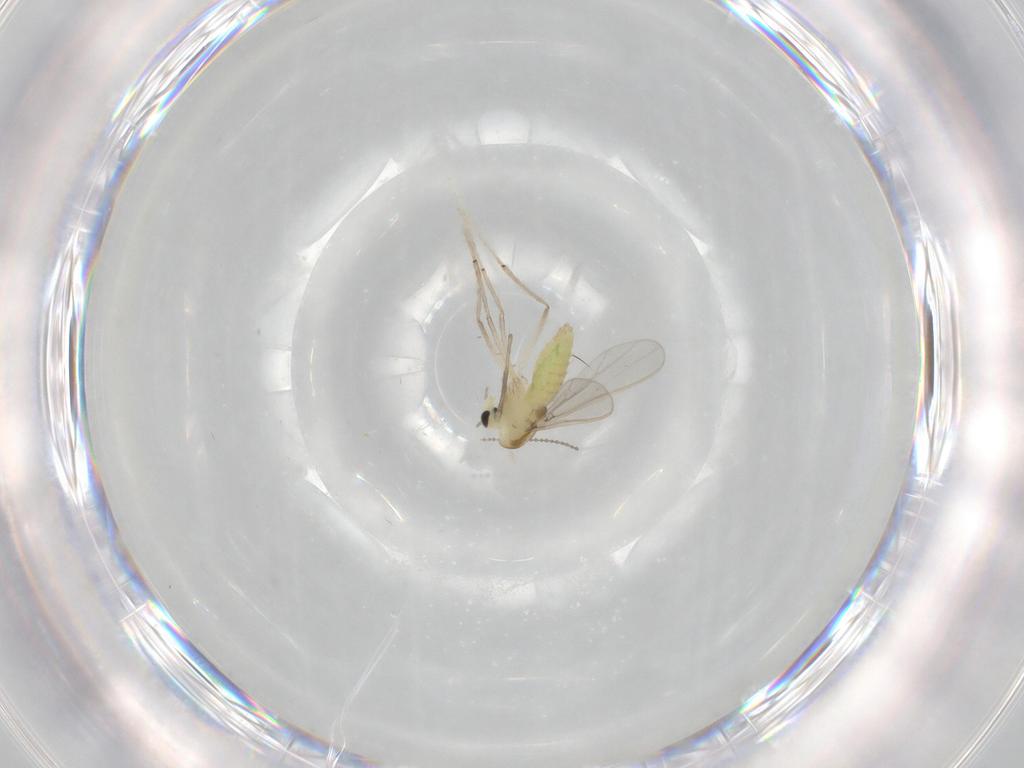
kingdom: Animalia
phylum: Arthropoda
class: Insecta
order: Diptera
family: Chironomidae
